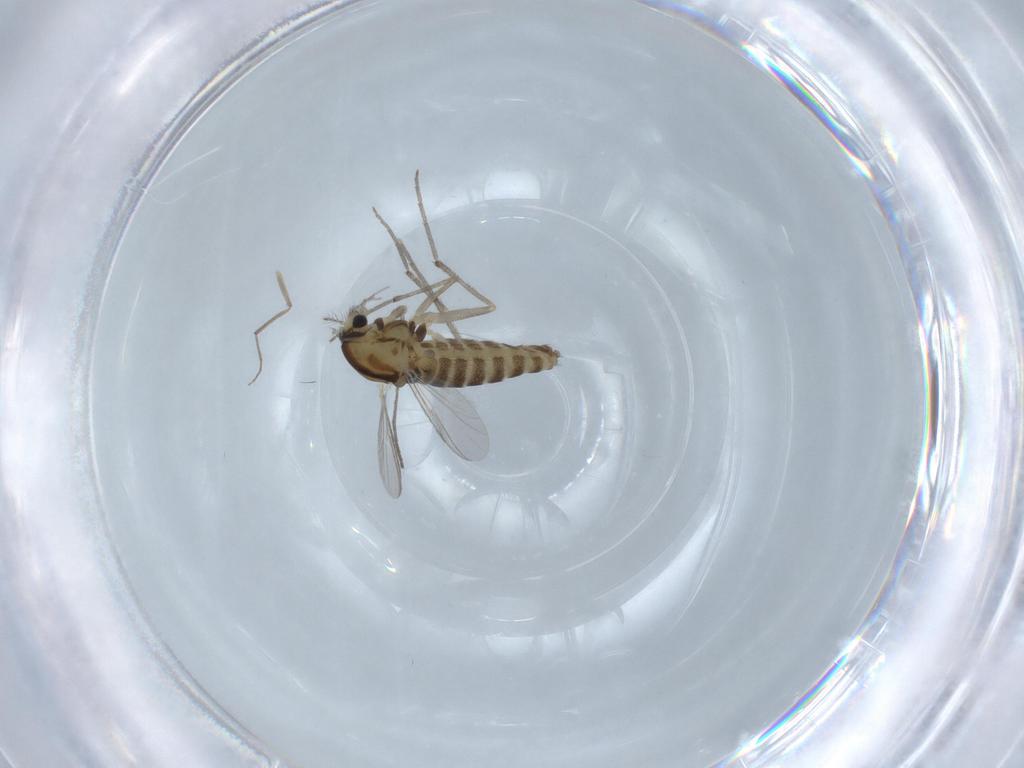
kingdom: Animalia
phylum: Arthropoda
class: Insecta
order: Diptera
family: Chironomidae
